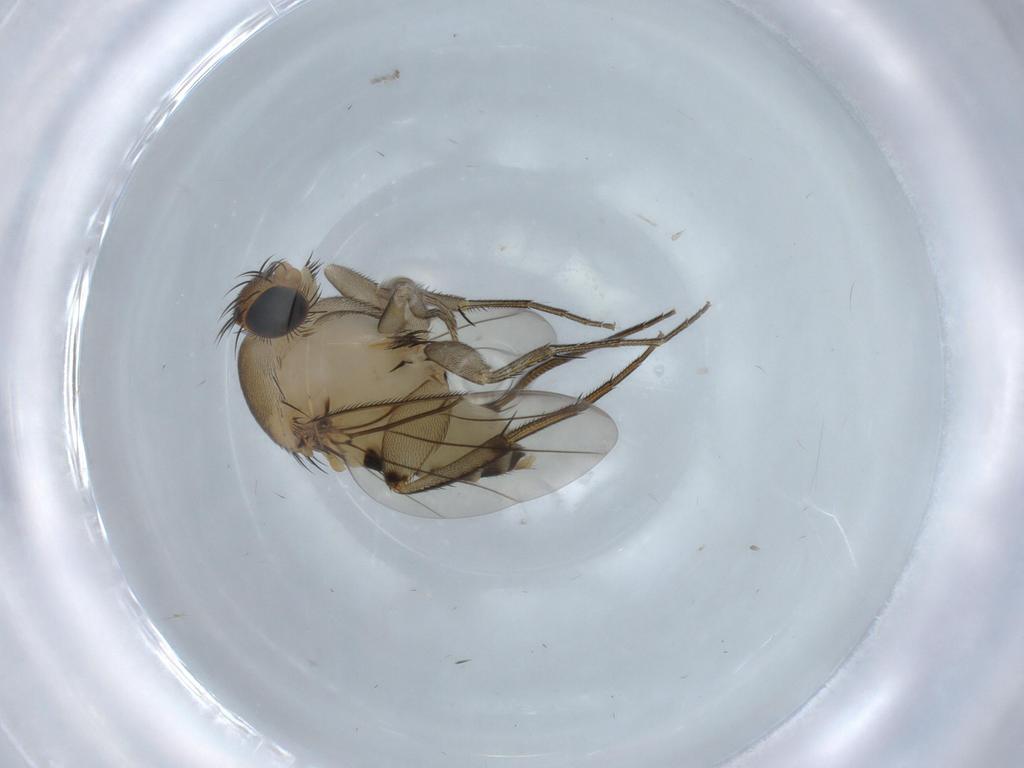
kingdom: Animalia
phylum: Arthropoda
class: Insecta
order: Diptera
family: Phoridae
